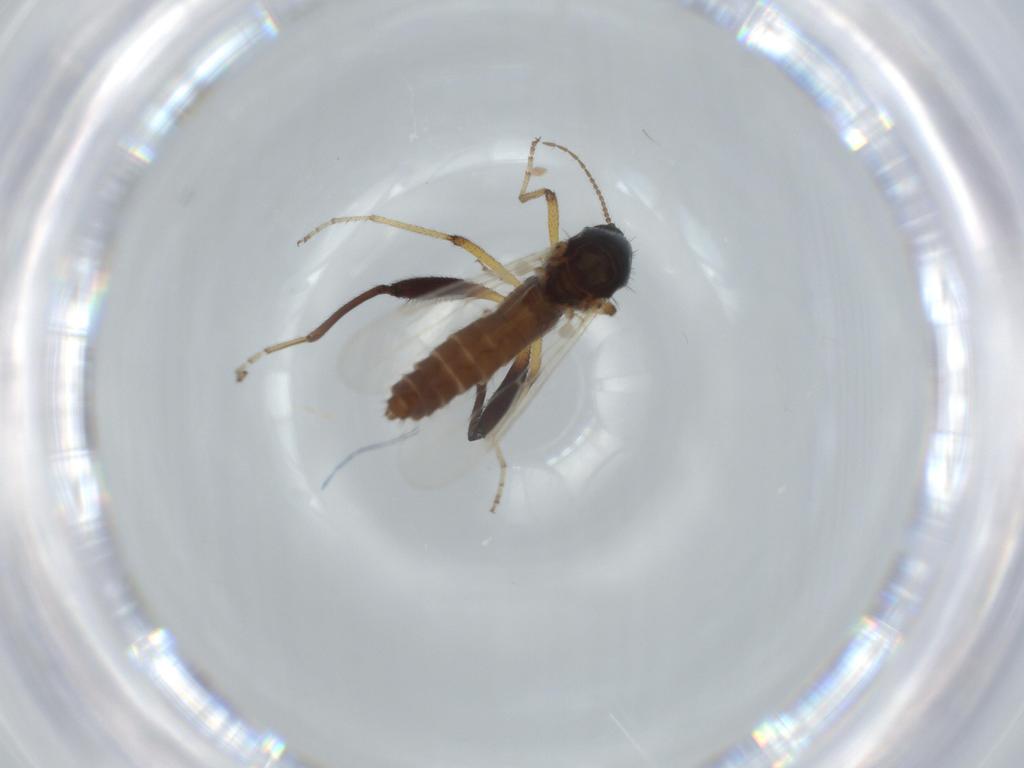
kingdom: Animalia
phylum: Arthropoda
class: Insecta
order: Diptera
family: Ceratopogonidae
